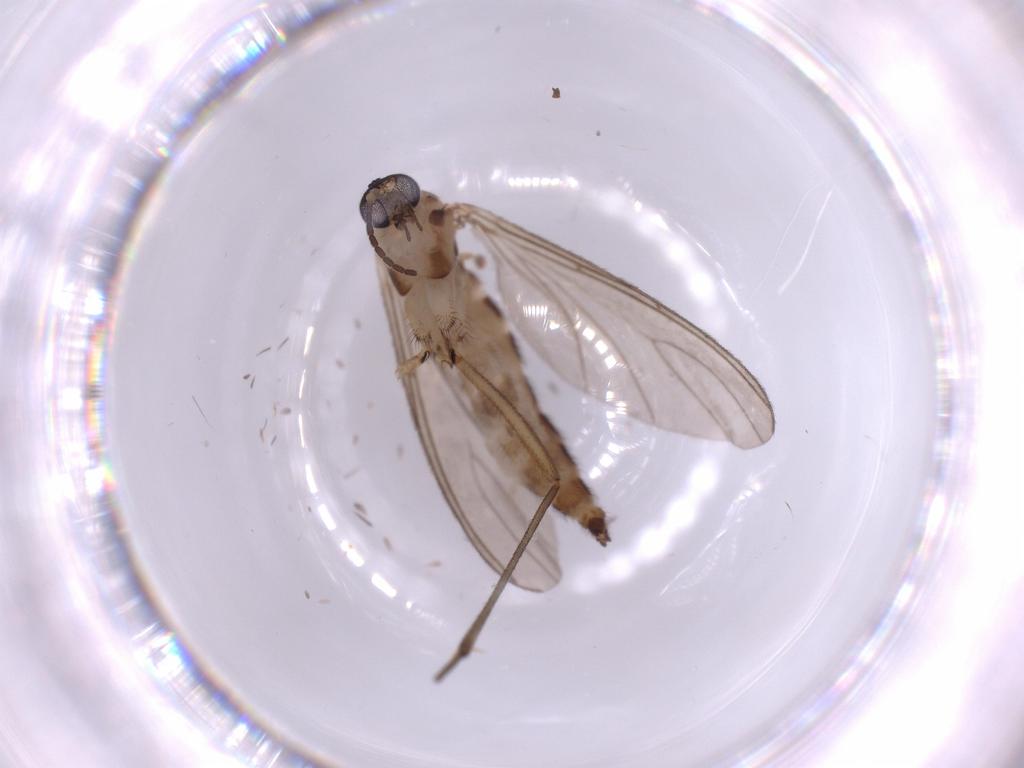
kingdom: Animalia
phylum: Arthropoda
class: Insecta
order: Diptera
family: Sciaridae
